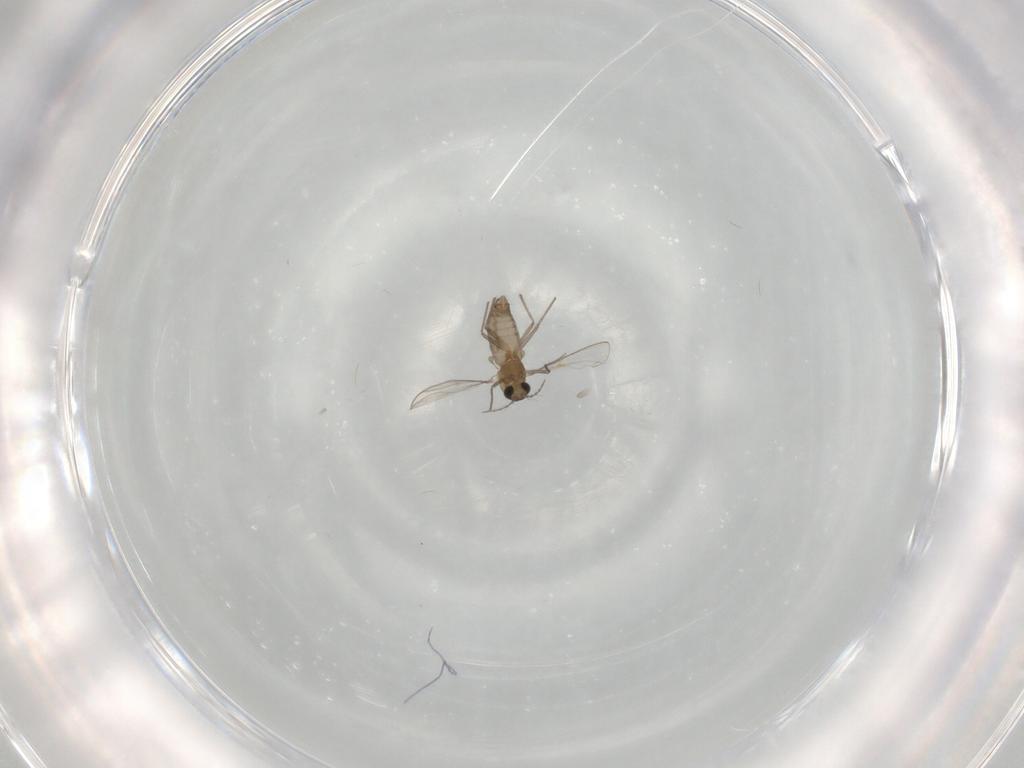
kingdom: Animalia
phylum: Arthropoda
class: Insecta
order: Diptera
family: Chironomidae
